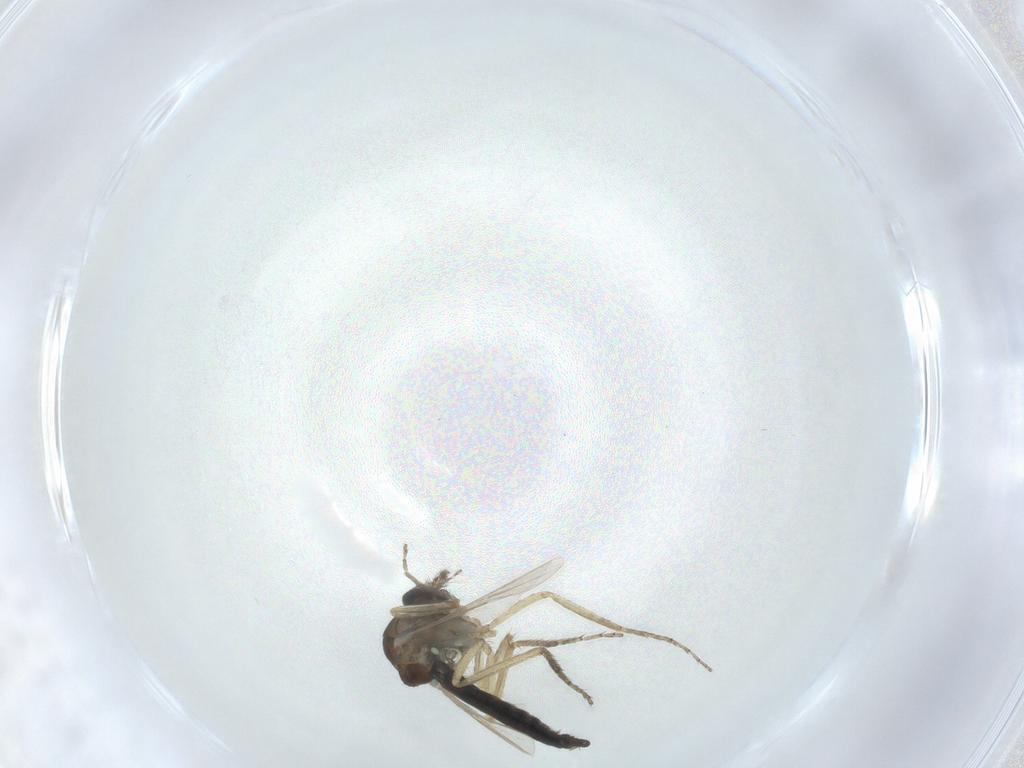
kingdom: Animalia
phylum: Arthropoda
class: Insecta
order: Diptera
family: Ceratopogonidae
